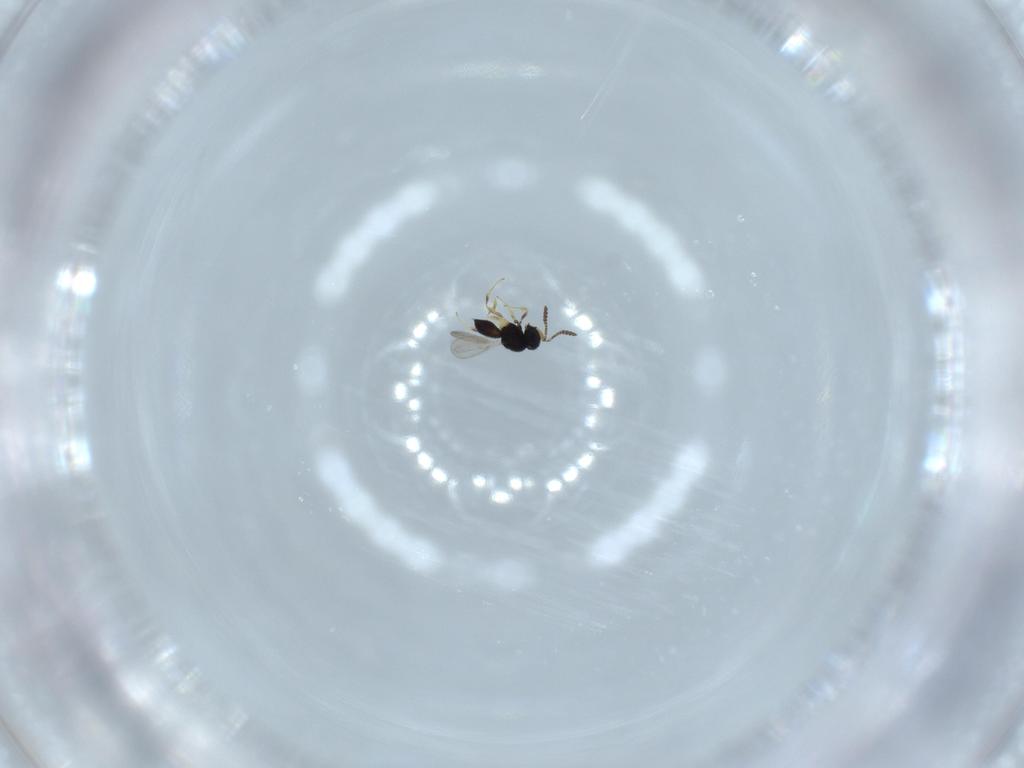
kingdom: Animalia
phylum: Arthropoda
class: Insecta
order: Hymenoptera
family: Scelionidae
